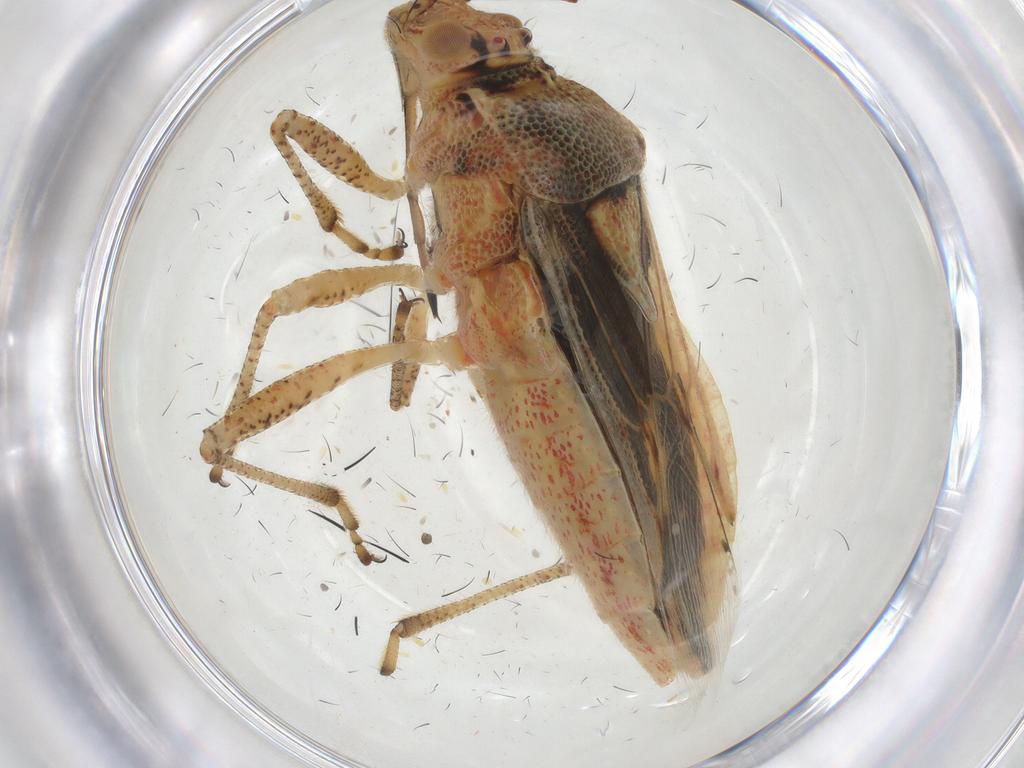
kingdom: Animalia
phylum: Arthropoda
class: Insecta
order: Hemiptera
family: Rhopalidae
